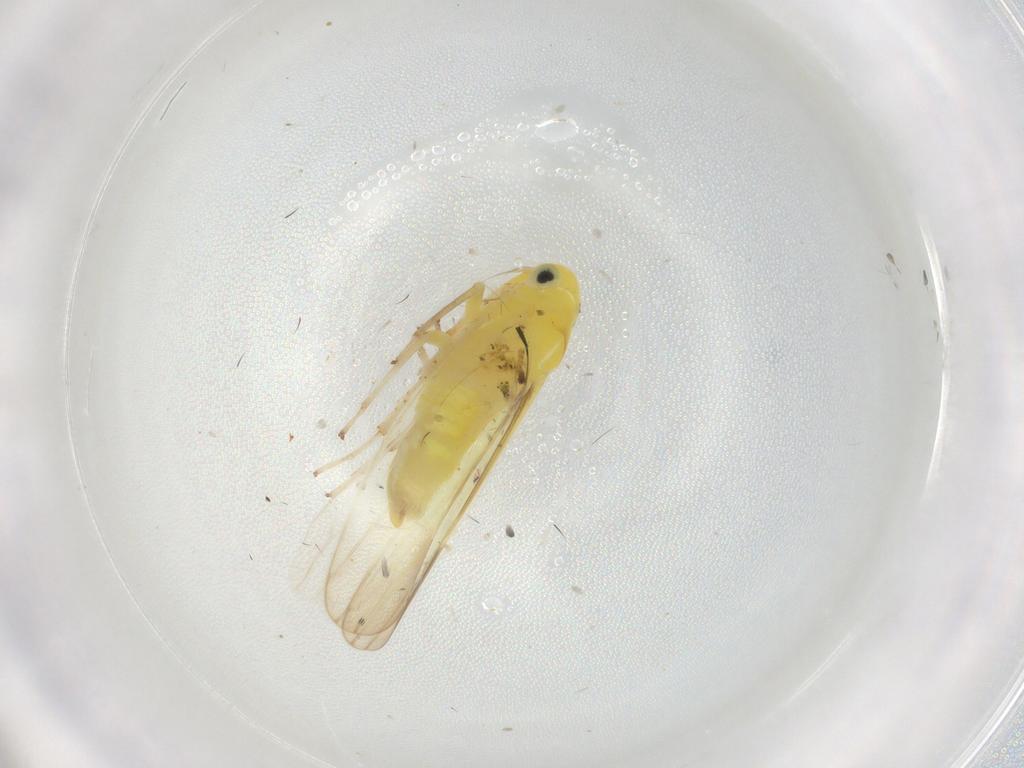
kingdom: Animalia
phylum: Arthropoda
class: Insecta
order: Hemiptera
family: Cicadellidae
